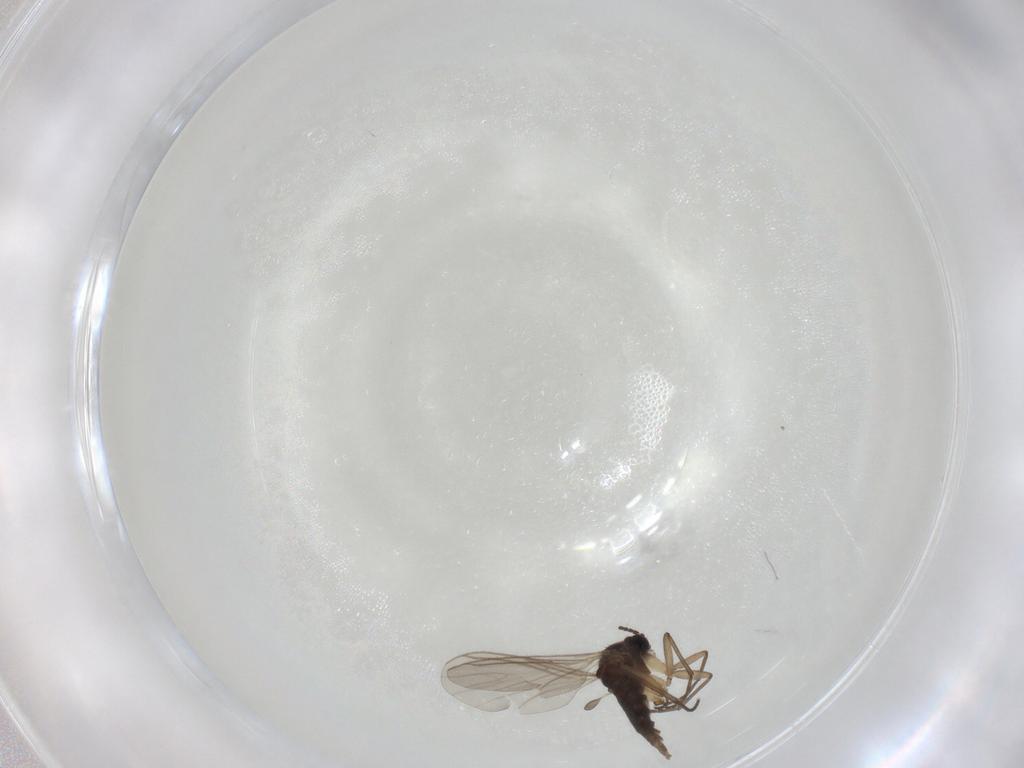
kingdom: Animalia
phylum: Arthropoda
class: Insecta
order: Diptera
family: Sciaridae
